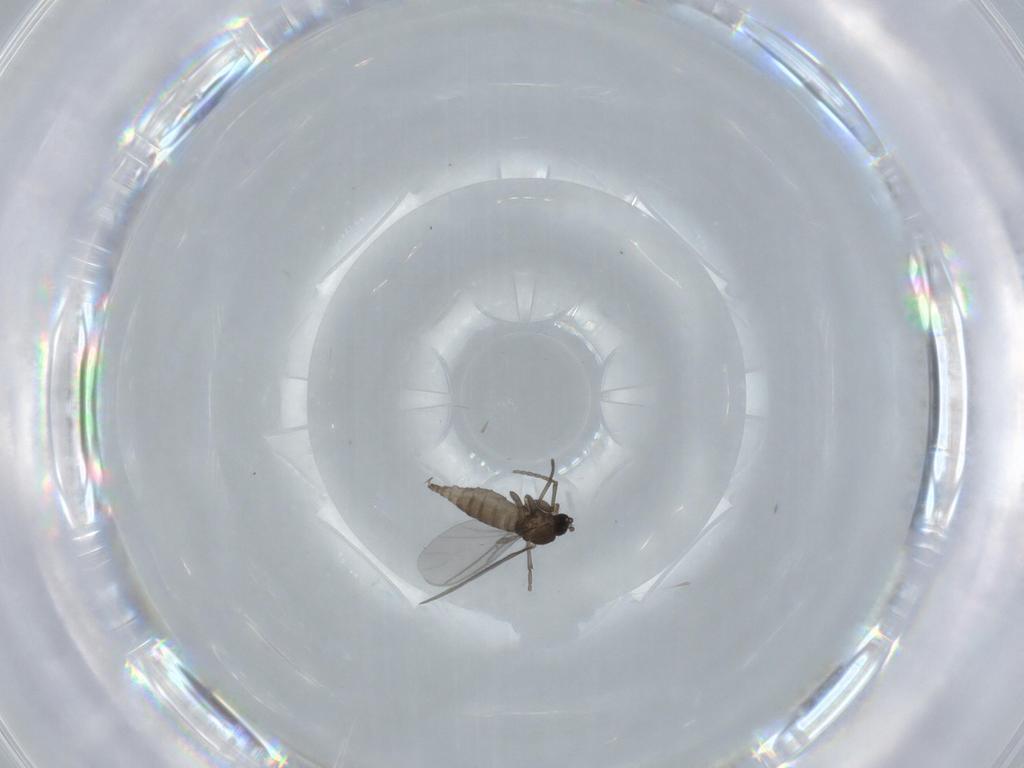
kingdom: Animalia
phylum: Arthropoda
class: Insecta
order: Diptera
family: Sciaridae
